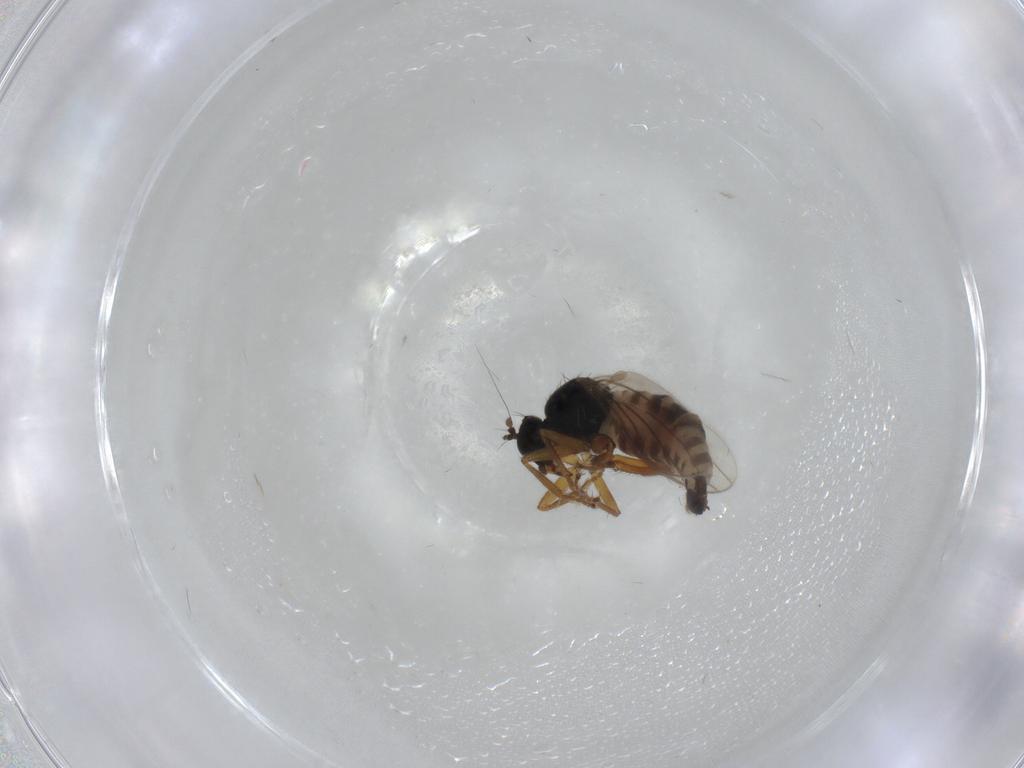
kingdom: Animalia
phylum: Arthropoda
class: Insecta
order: Diptera
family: Hybotidae
